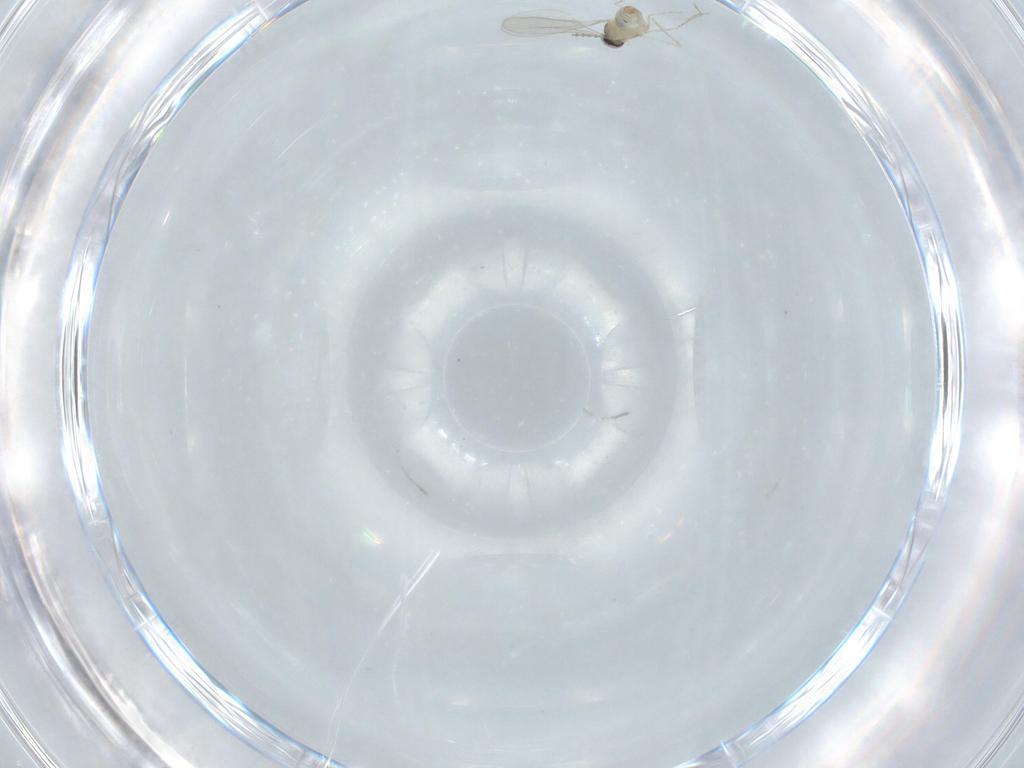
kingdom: Animalia
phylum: Arthropoda
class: Insecta
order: Diptera
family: Cecidomyiidae
